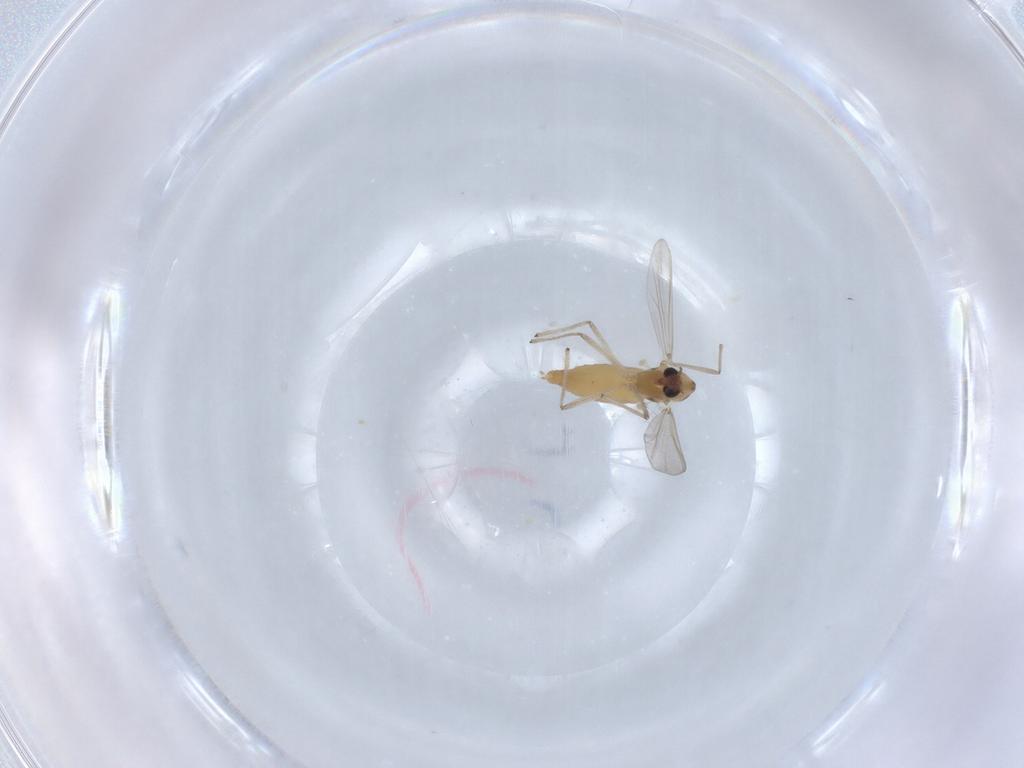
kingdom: Animalia
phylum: Arthropoda
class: Insecta
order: Diptera
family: Chironomidae
